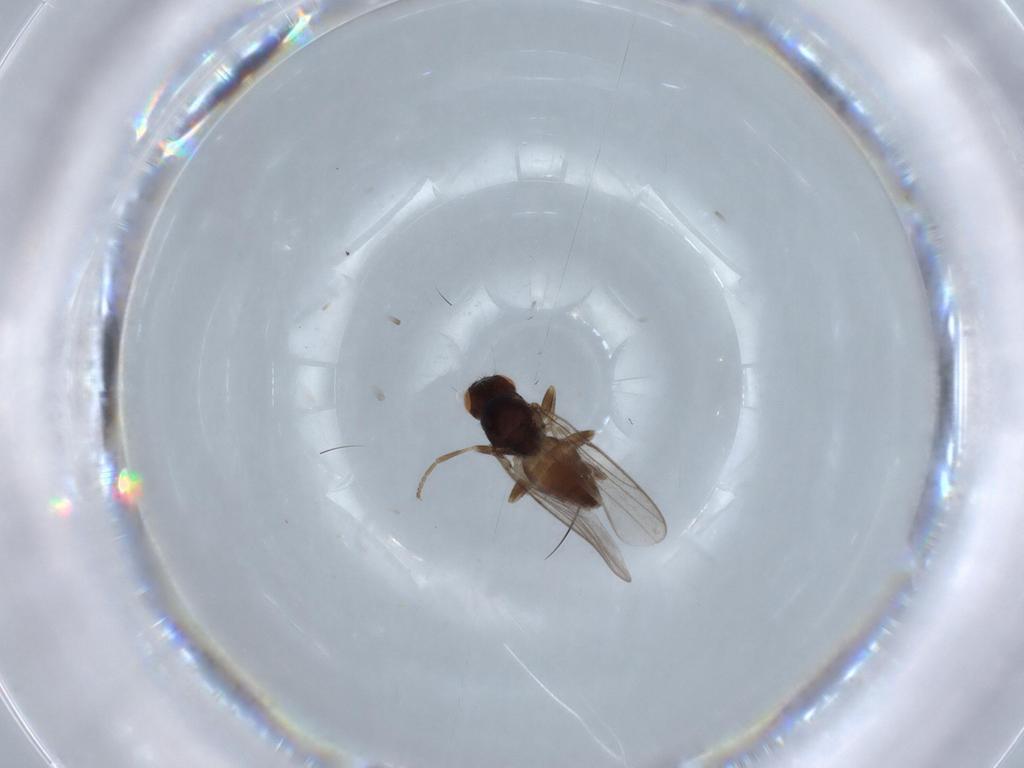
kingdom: Animalia
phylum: Arthropoda
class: Insecta
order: Diptera
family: Chloropidae
